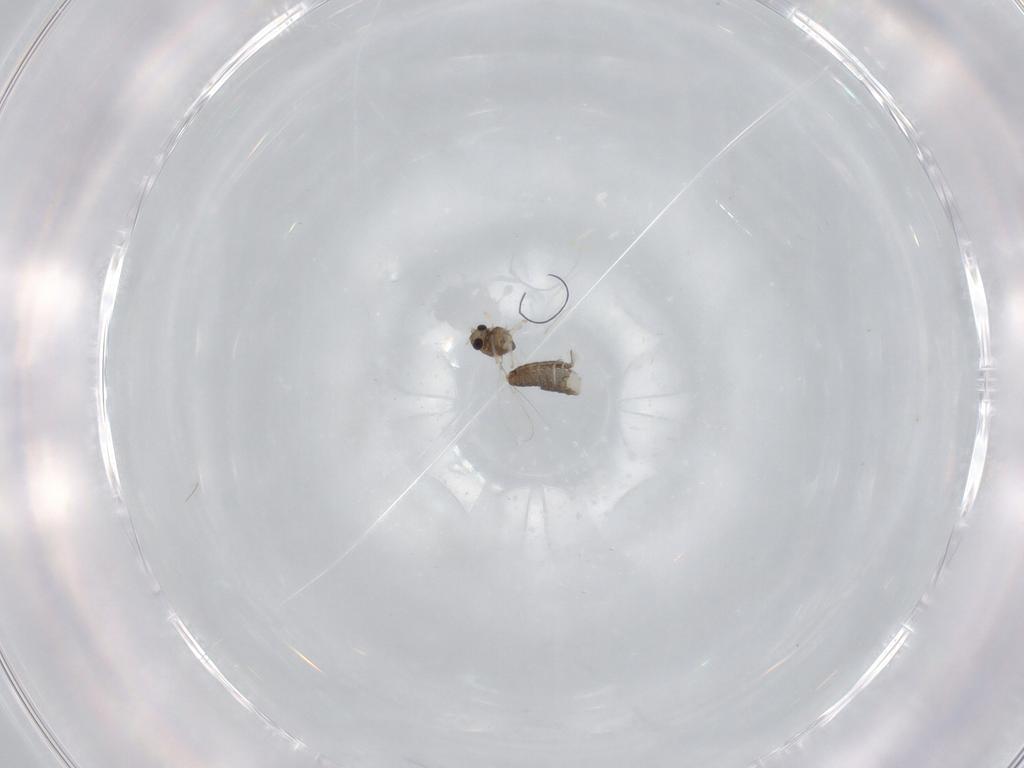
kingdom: Animalia
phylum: Arthropoda
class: Insecta
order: Diptera
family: Chironomidae
